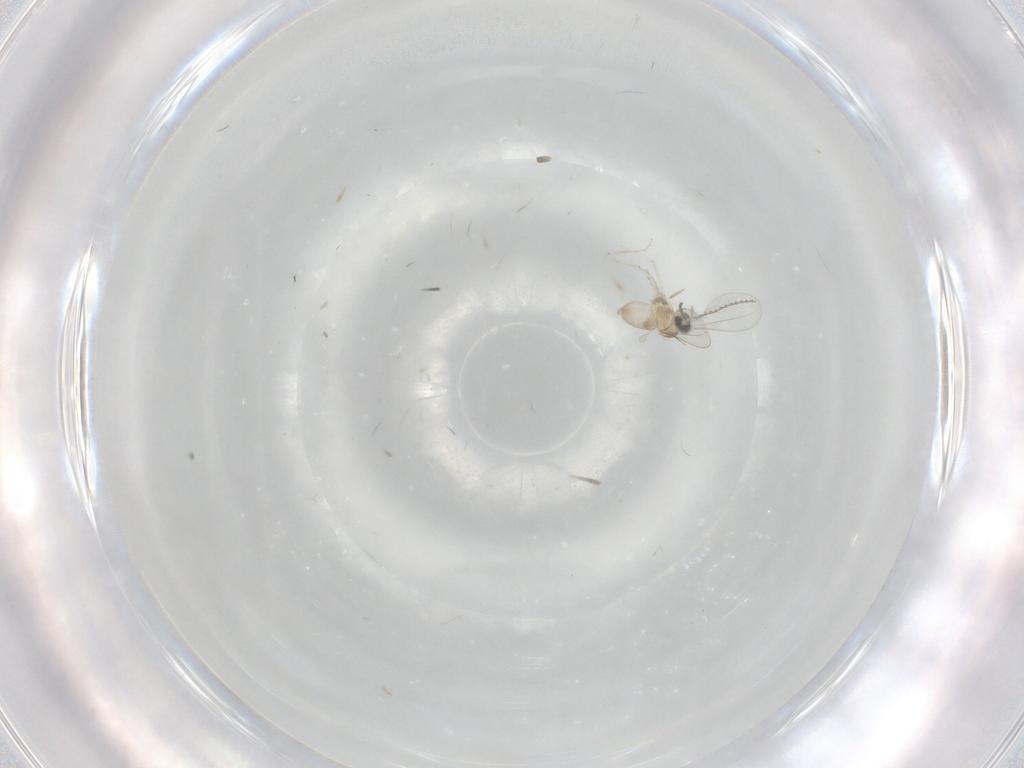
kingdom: Animalia
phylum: Arthropoda
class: Insecta
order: Diptera
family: Cecidomyiidae
